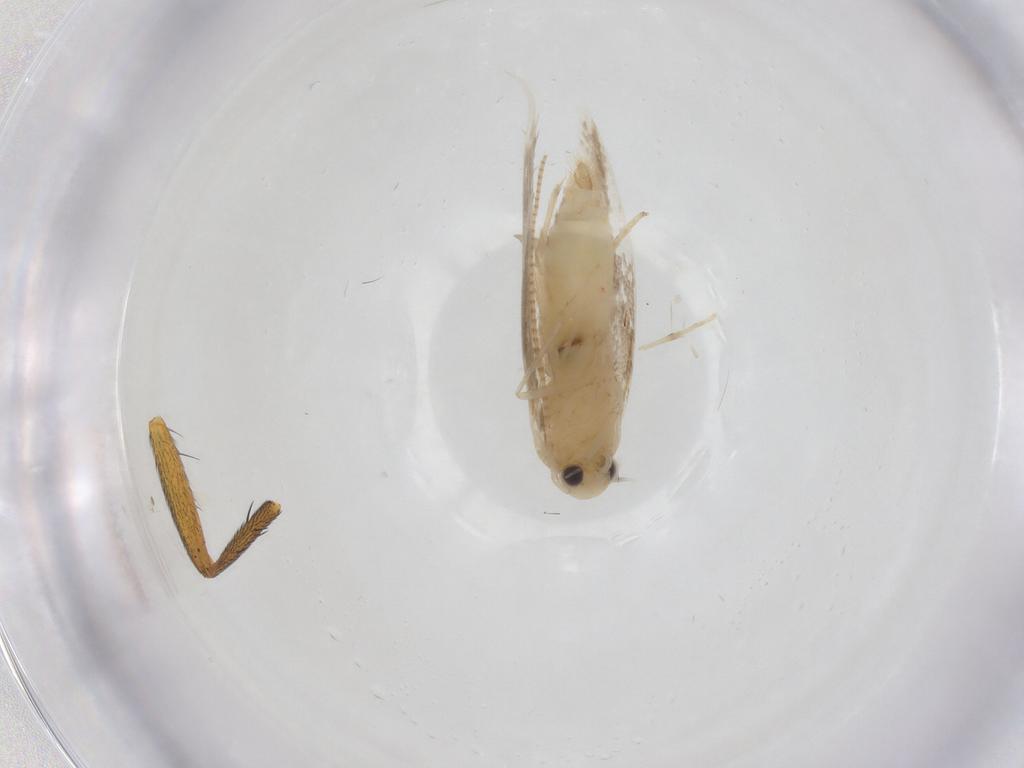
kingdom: Animalia
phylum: Arthropoda
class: Insecta
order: Lepidoptera
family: Gracillariidae
